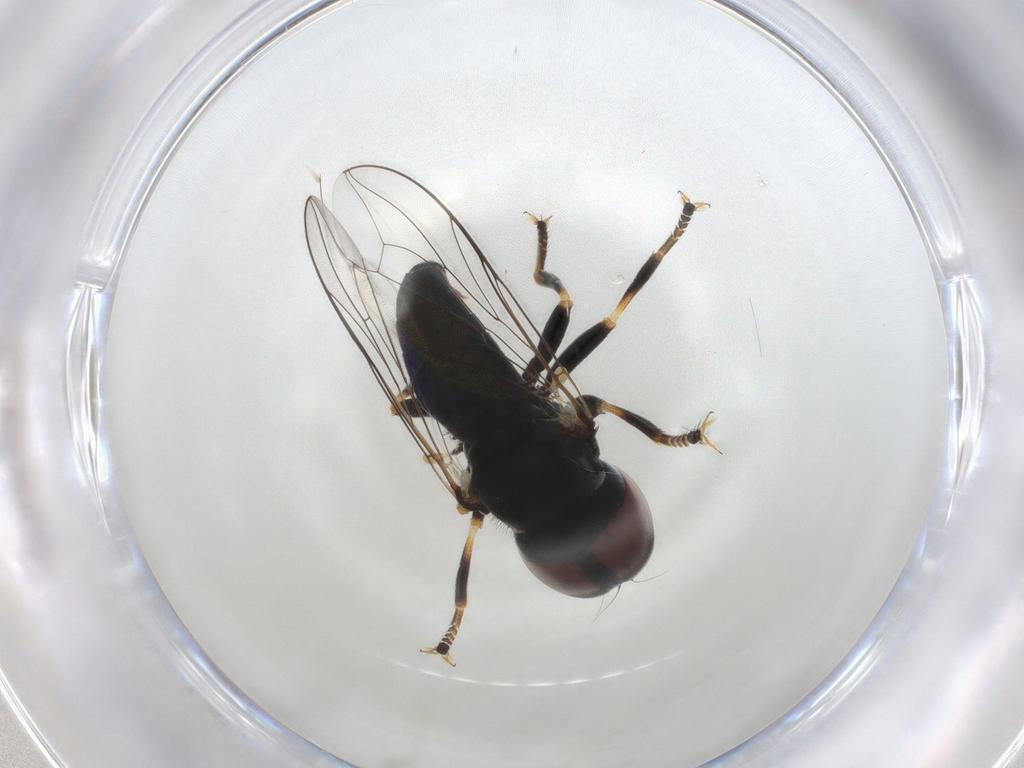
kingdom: Animalia
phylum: Arthropoda
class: Insecta
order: Diptera
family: Pipunculidae
